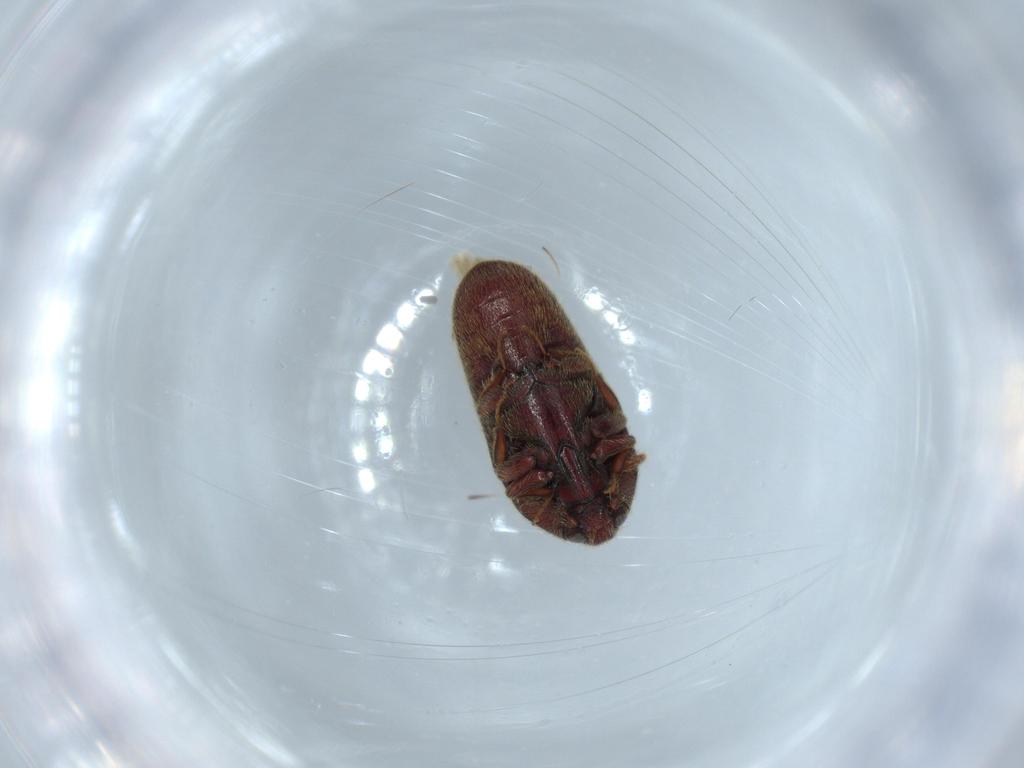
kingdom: Animalia
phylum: Arthropoda
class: Insecta
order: Coleoptera
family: Throscidae
